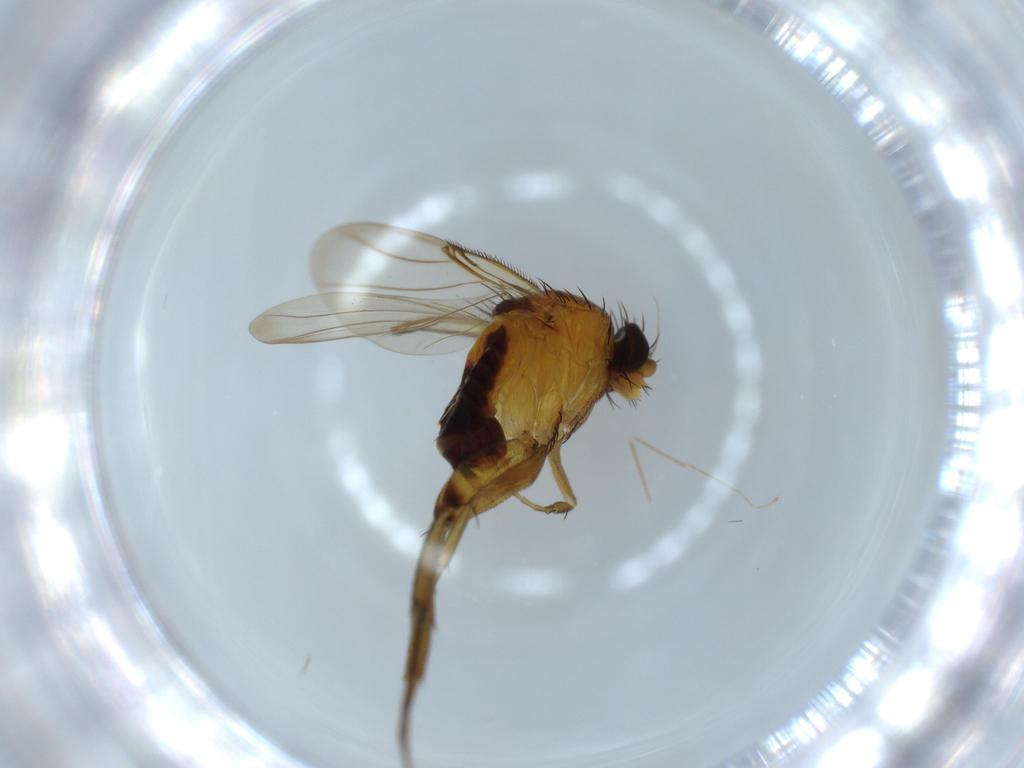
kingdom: Animalia
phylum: Arthropoda
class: Insecta
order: Diptera
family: Phoridae
